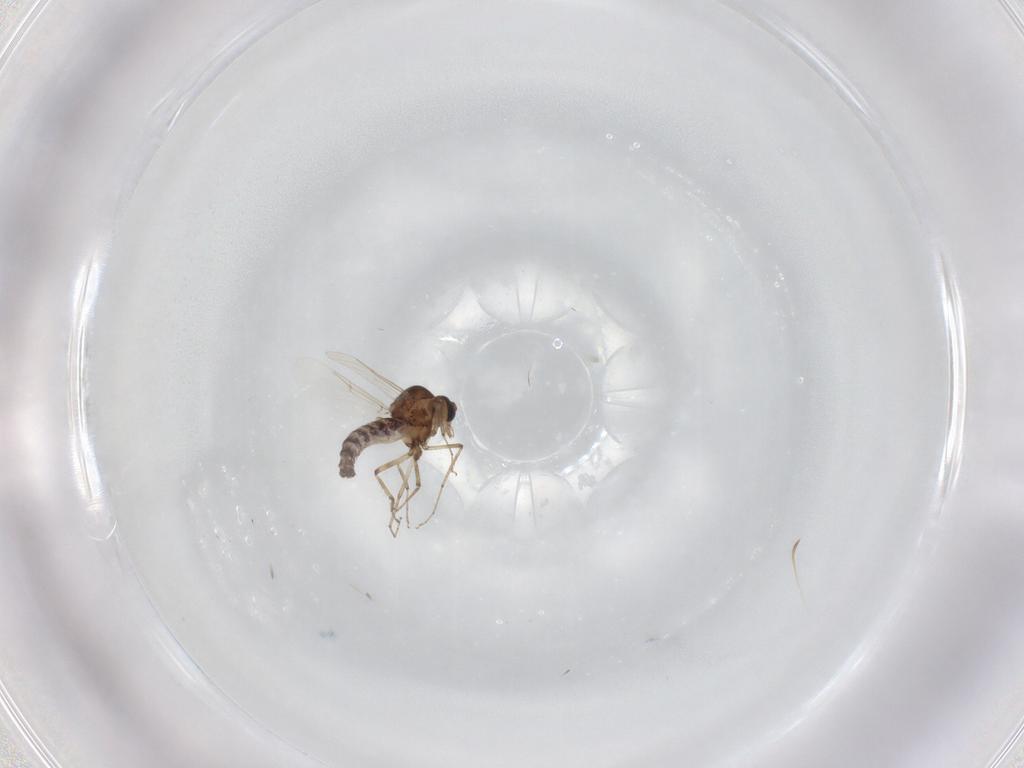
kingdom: Animalia
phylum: Arthropoda
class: Insecta
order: Diptera
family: Ceratopogonidae
